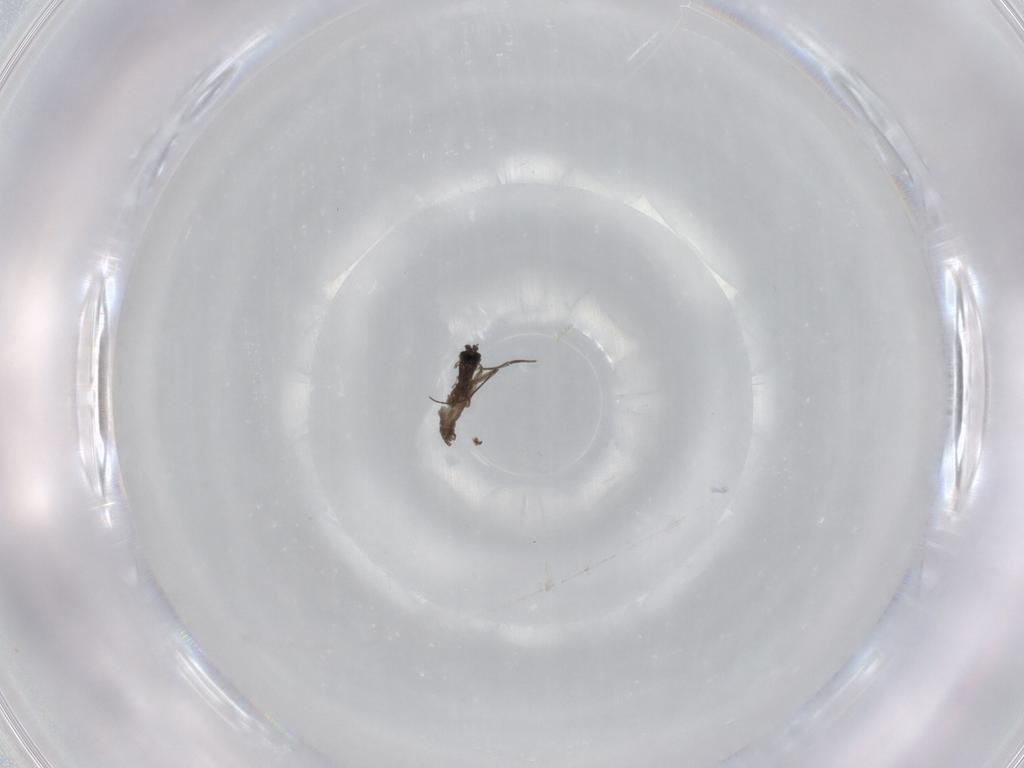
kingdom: Animalia
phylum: Arthropoda
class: Insecta
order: Diptera
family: Sciaridae
